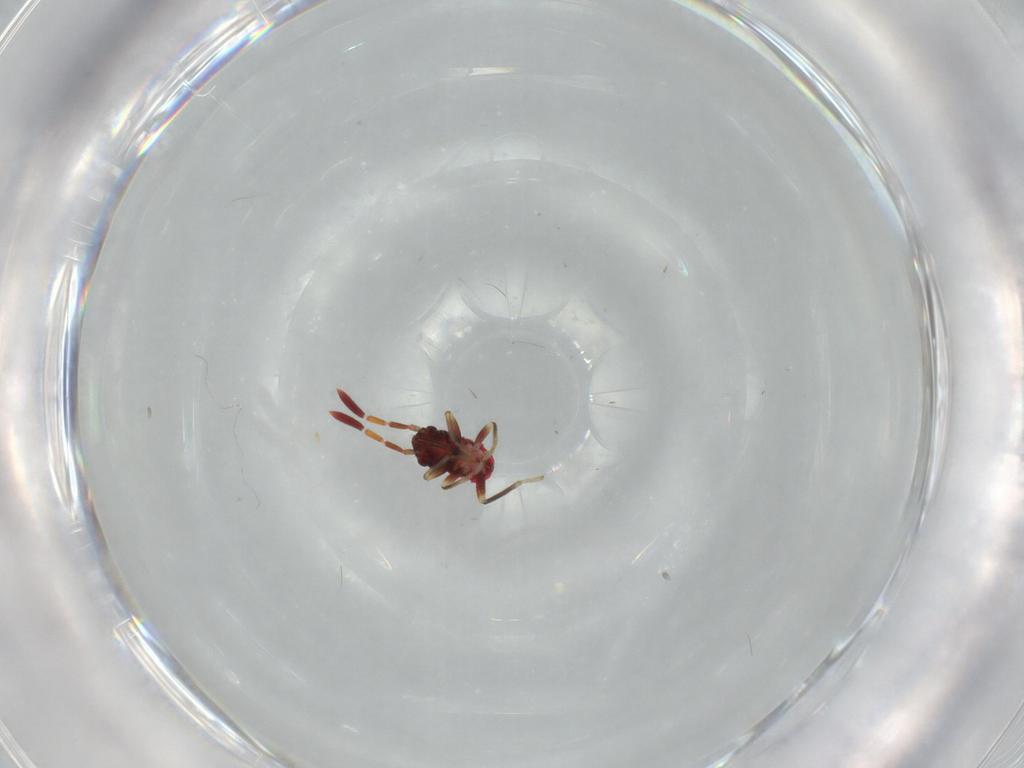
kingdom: Animalia
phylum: Arthropoda
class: Insecta
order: Hemiptera
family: Rhyparochromidae
